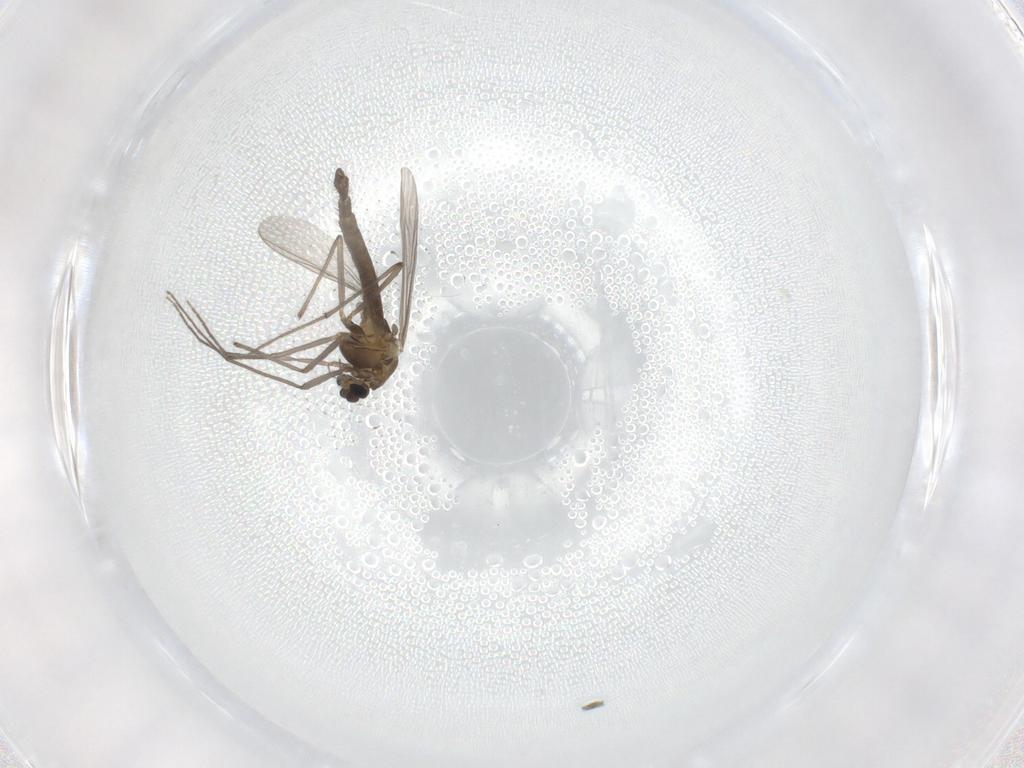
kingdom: Animalia
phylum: Arthropoda
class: Insecta
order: Diptera
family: Chironomidae
